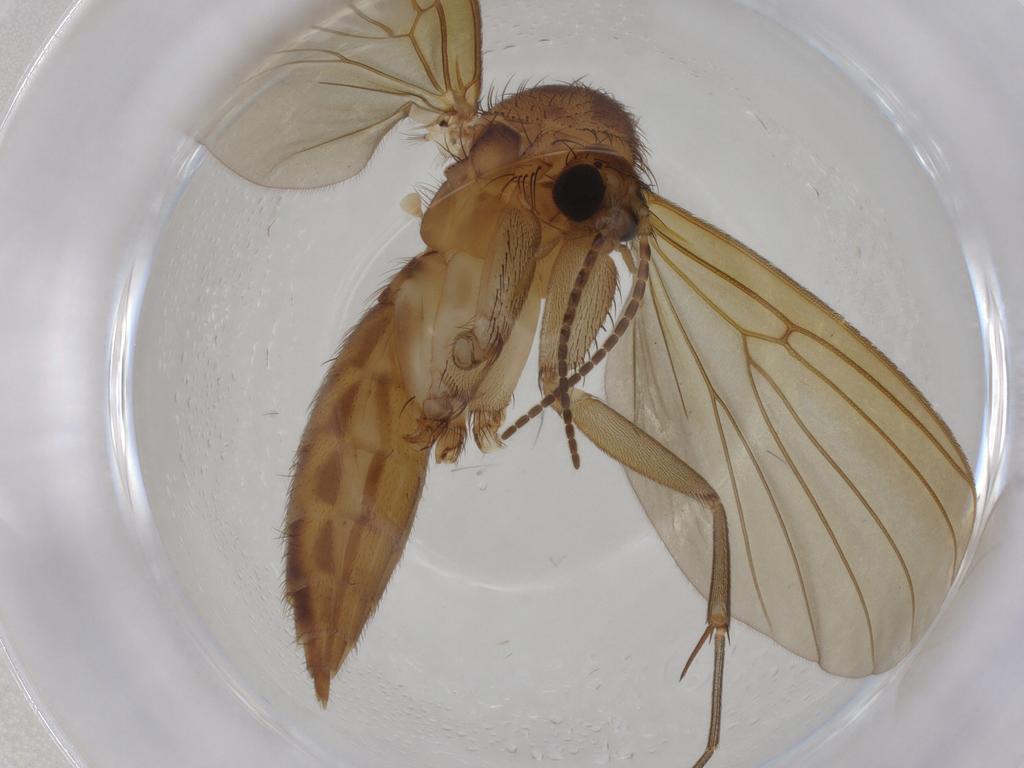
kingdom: Animalia
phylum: Arthropoda
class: Insecta
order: Diptera
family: Mycetophilidae
